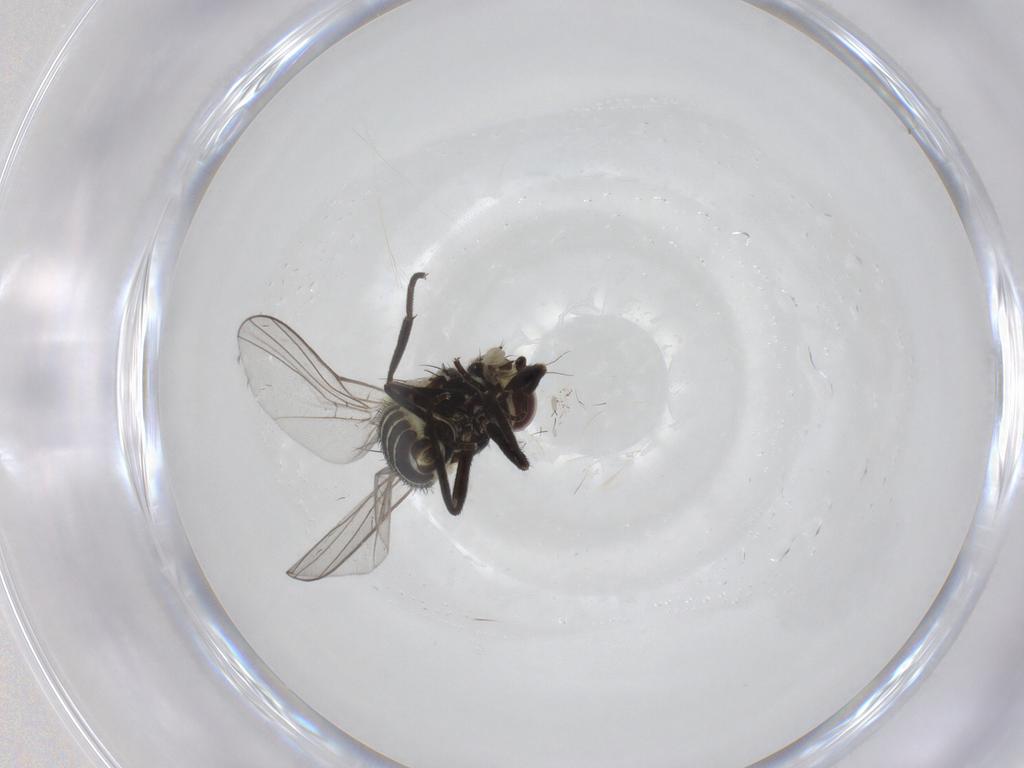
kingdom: Animalia
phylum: Arthropoda
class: Insecta
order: Diptera
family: Agromyzidae
